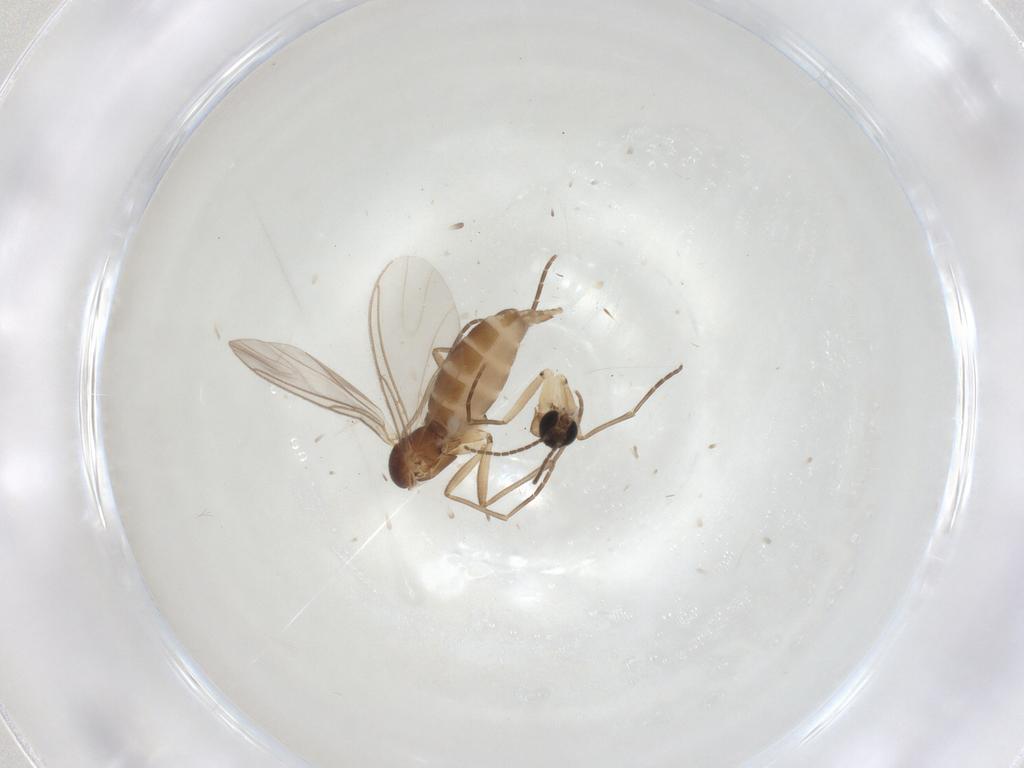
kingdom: Animalia
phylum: Arthropoda
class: Insecta
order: Diptera
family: Sciaridae
